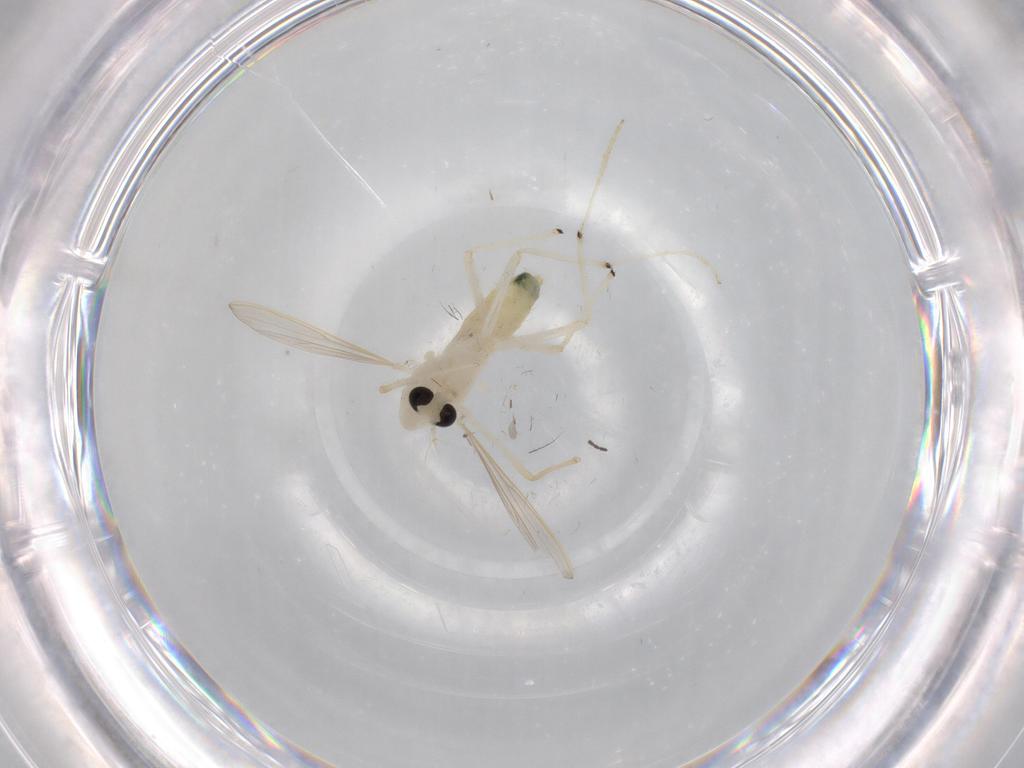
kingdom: Animalia
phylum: Arthropoda
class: Insecta
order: Diptera
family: Chironomidae
